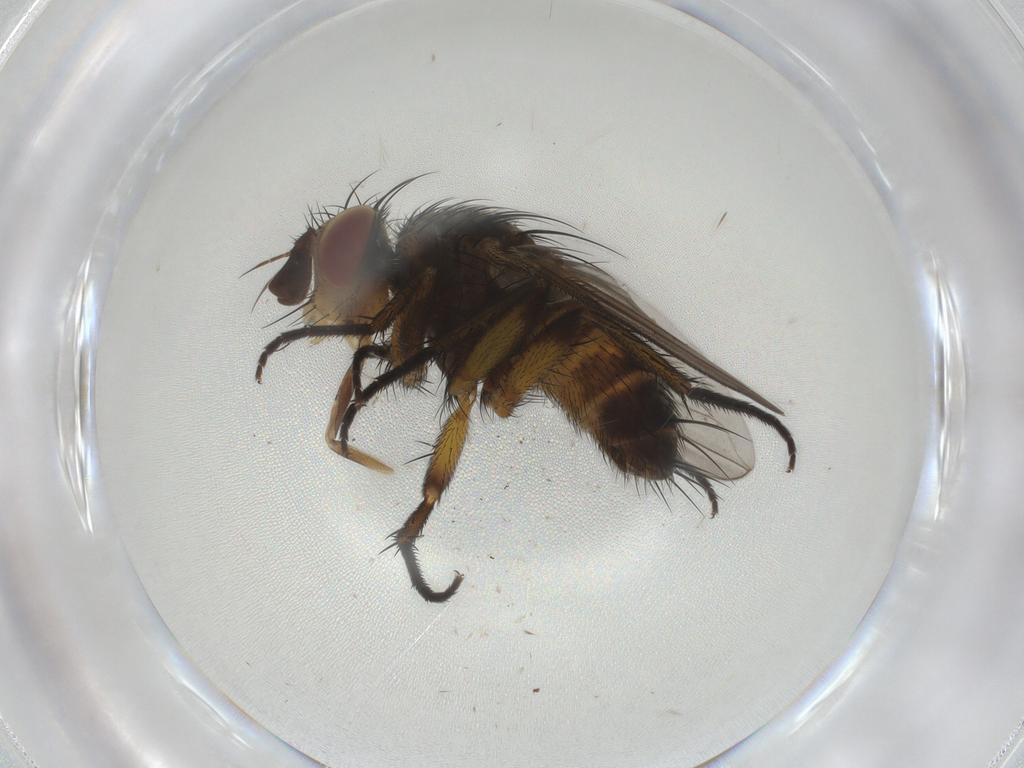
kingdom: Animalia
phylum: Arthropoda
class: Insecta
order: Diptera
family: Tachinidae
